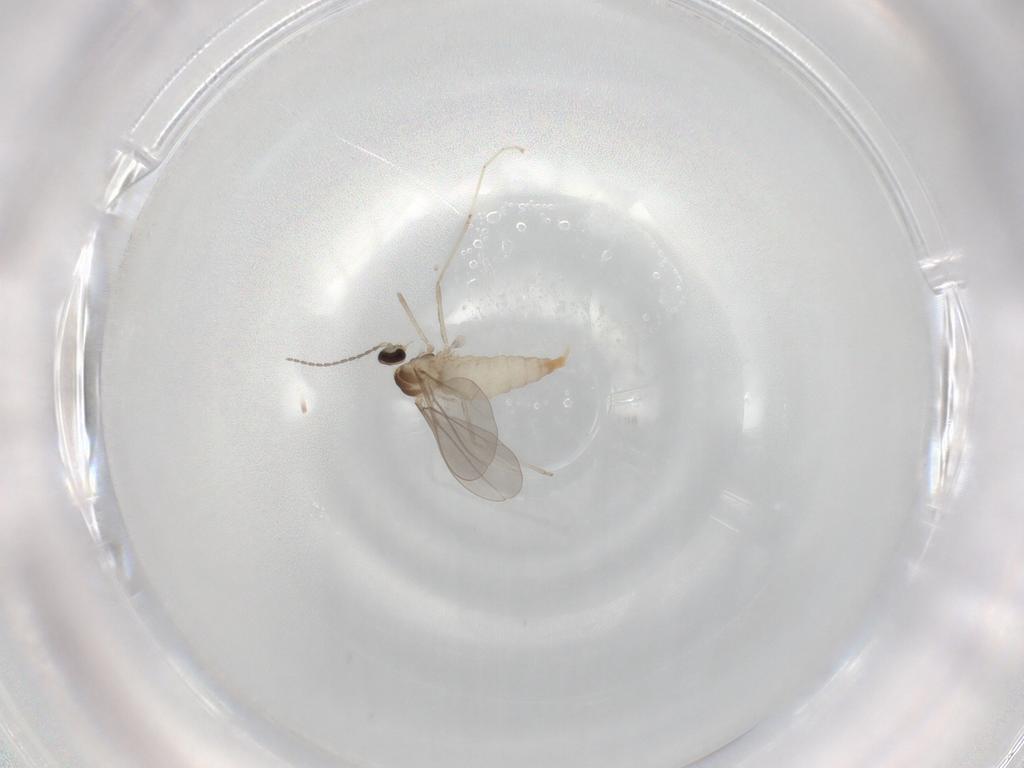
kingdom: Animalia
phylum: Arthropoda
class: Insecta
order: Diptera
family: Cecidomyiidae
